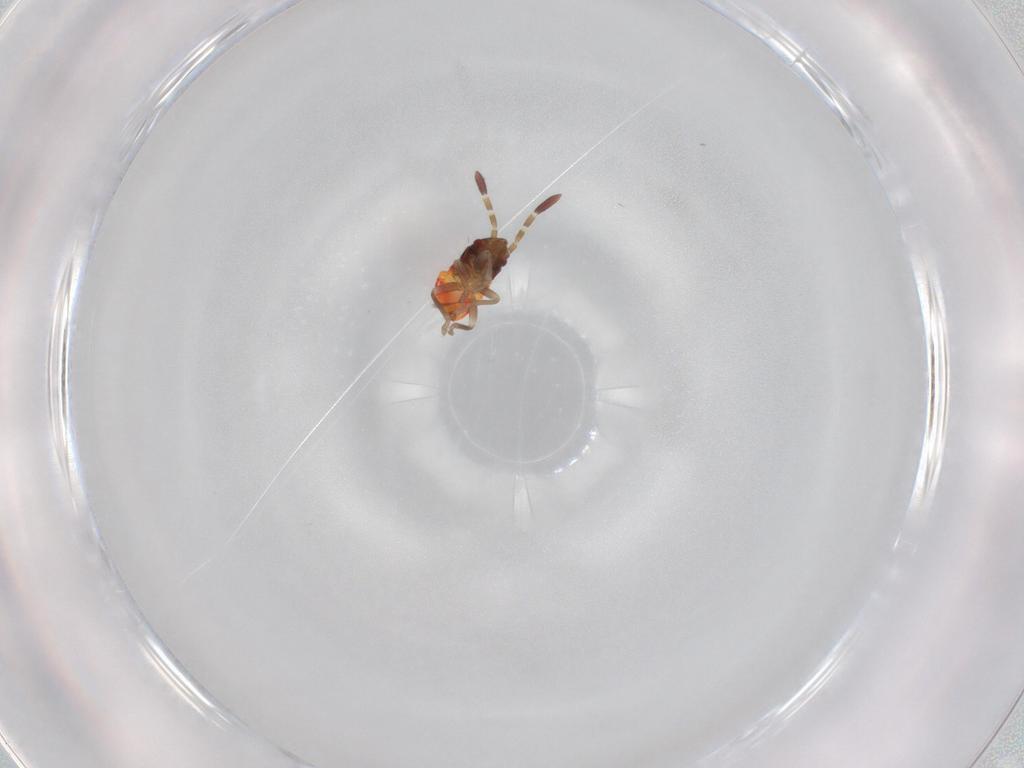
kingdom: Animalia
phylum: Arthropoda
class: Insecta
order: Hemiptera
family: Rhyparochromidae
